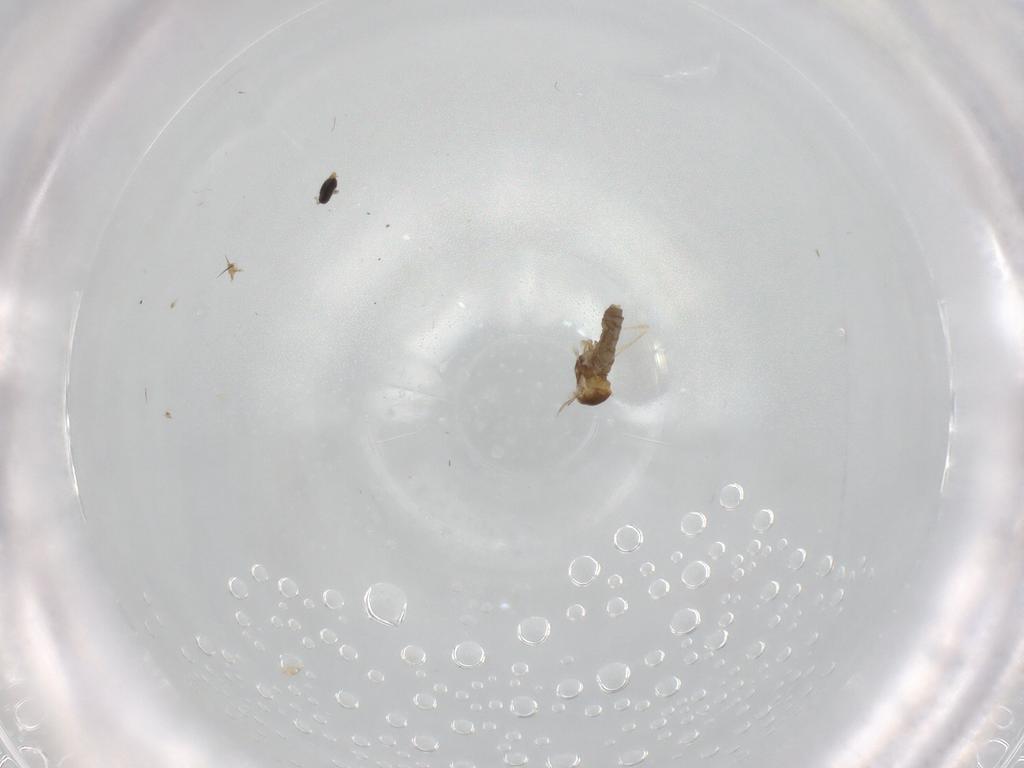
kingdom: Animalia
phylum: Arthropoda
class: Insecta
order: Diptera
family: Cecidomyiidae
